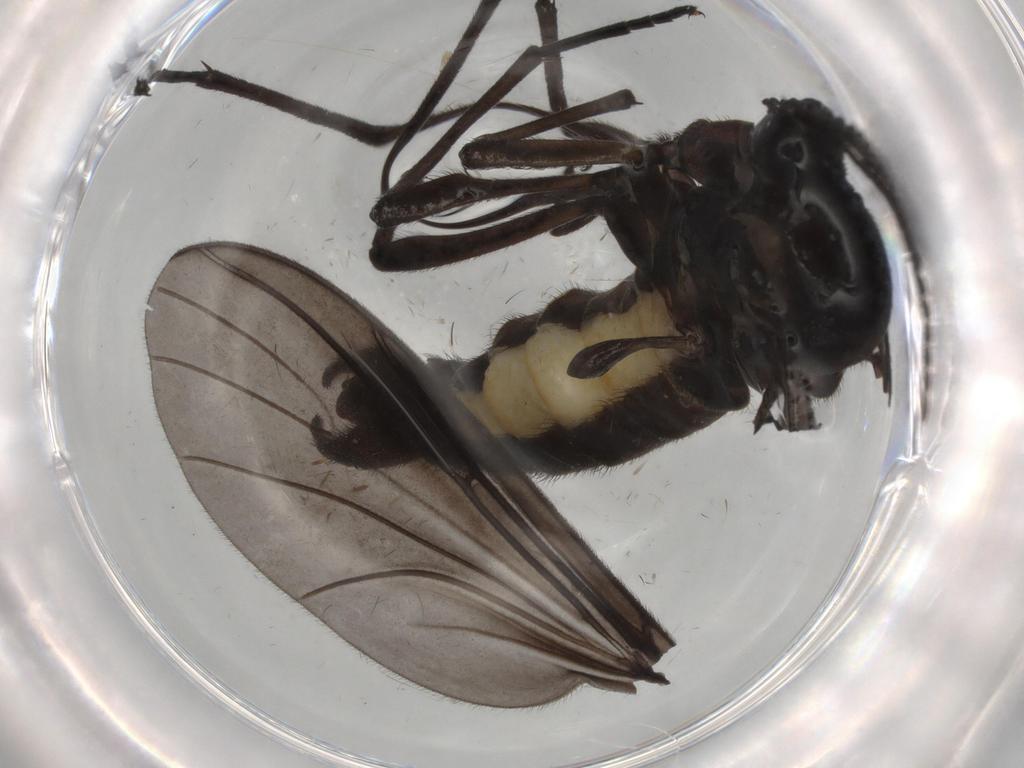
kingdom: Animalia
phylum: Arthropoda
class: Insecta
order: Diptera
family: Sciaridae
